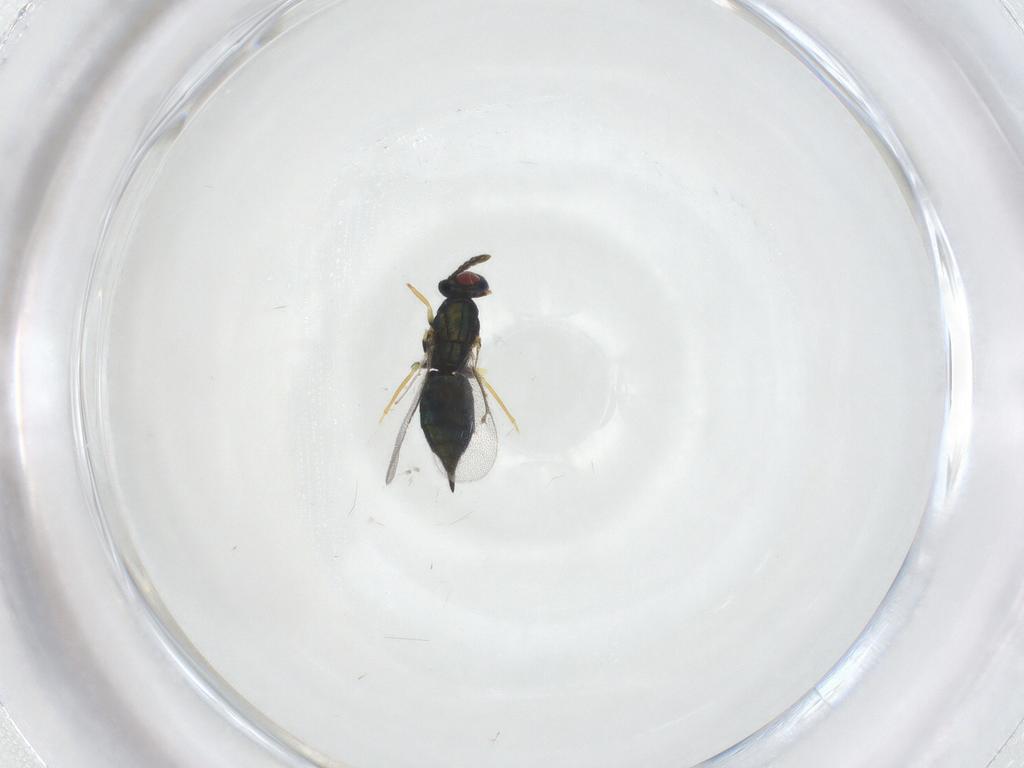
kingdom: Animalia
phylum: Arthropoda
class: Insecta
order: Hymenoptera
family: Eulophidae
